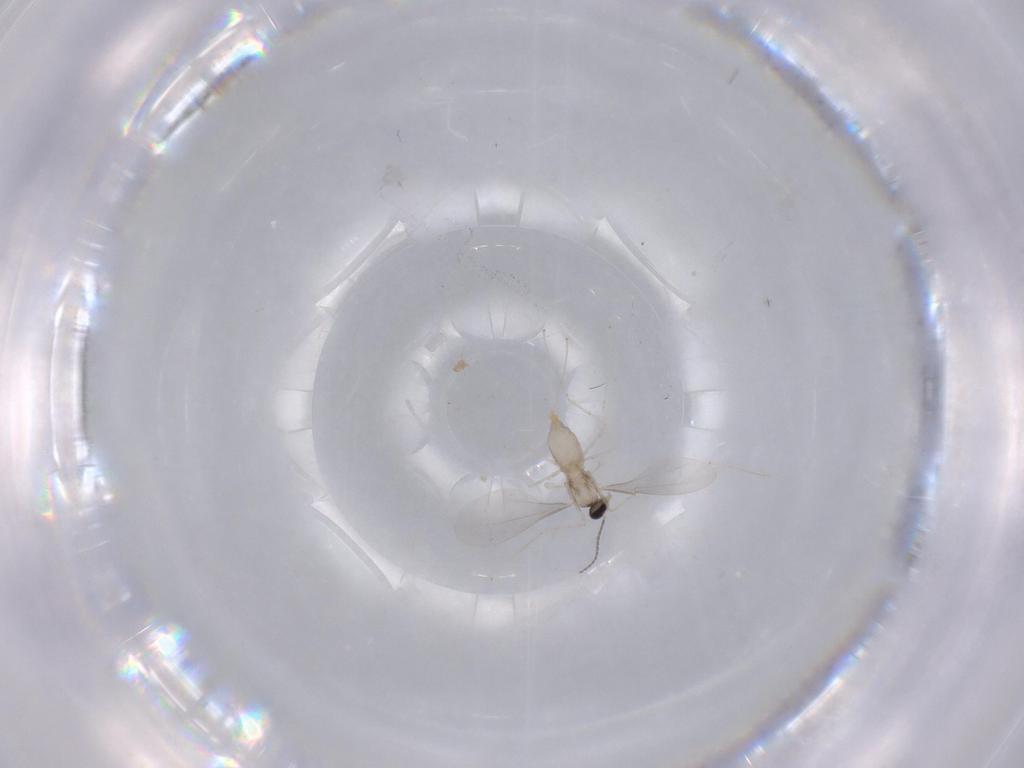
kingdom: Animalia
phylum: Arthropoda
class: Insecta
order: Diptera
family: Cecidomyiidae
